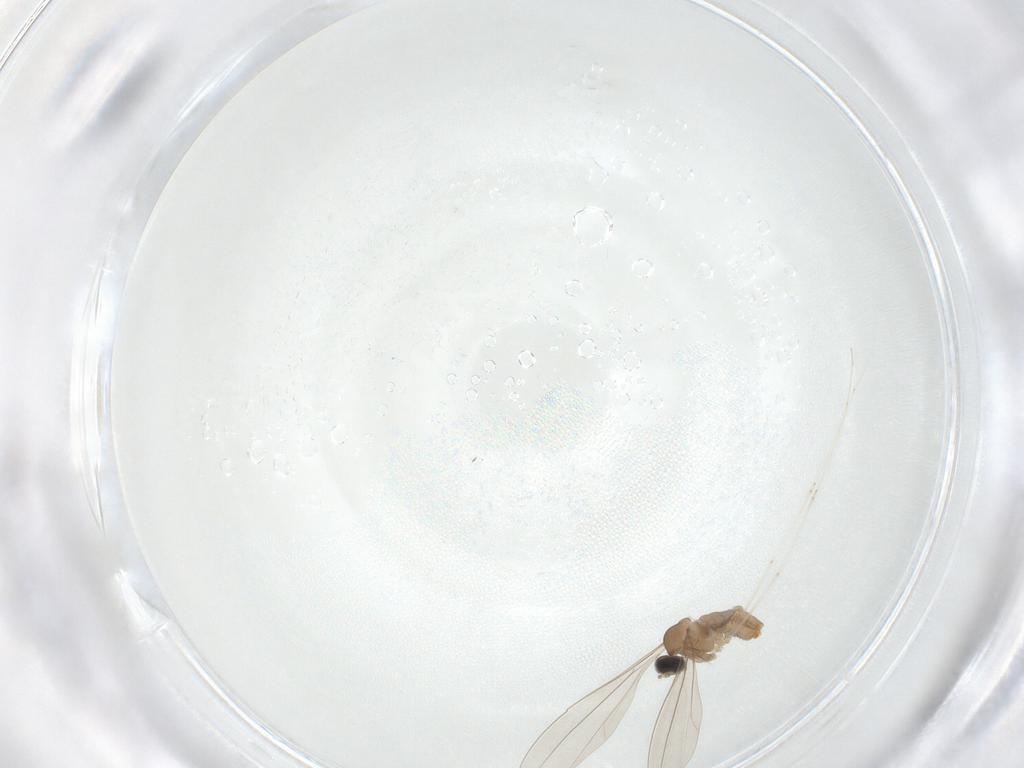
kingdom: Animalia
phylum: Arthropoda
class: Insecta
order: Diptera
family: Cecidomyiidae
